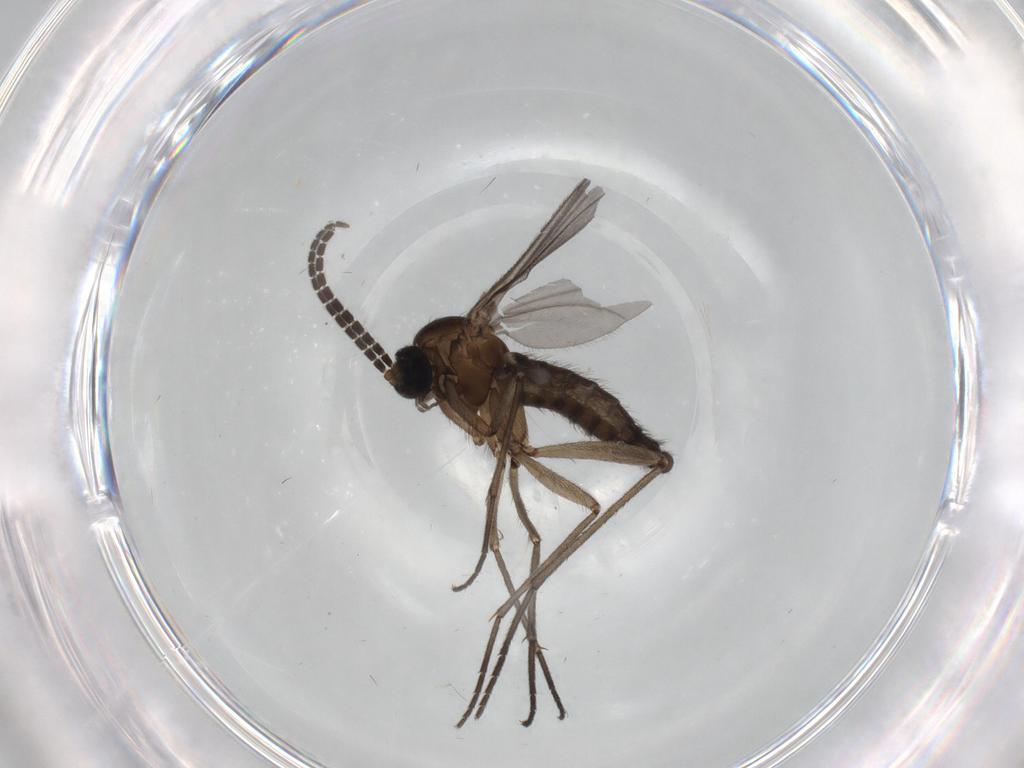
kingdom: Animalia
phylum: Arthropoda
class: Insecta
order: Diptera
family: Sciaridae
